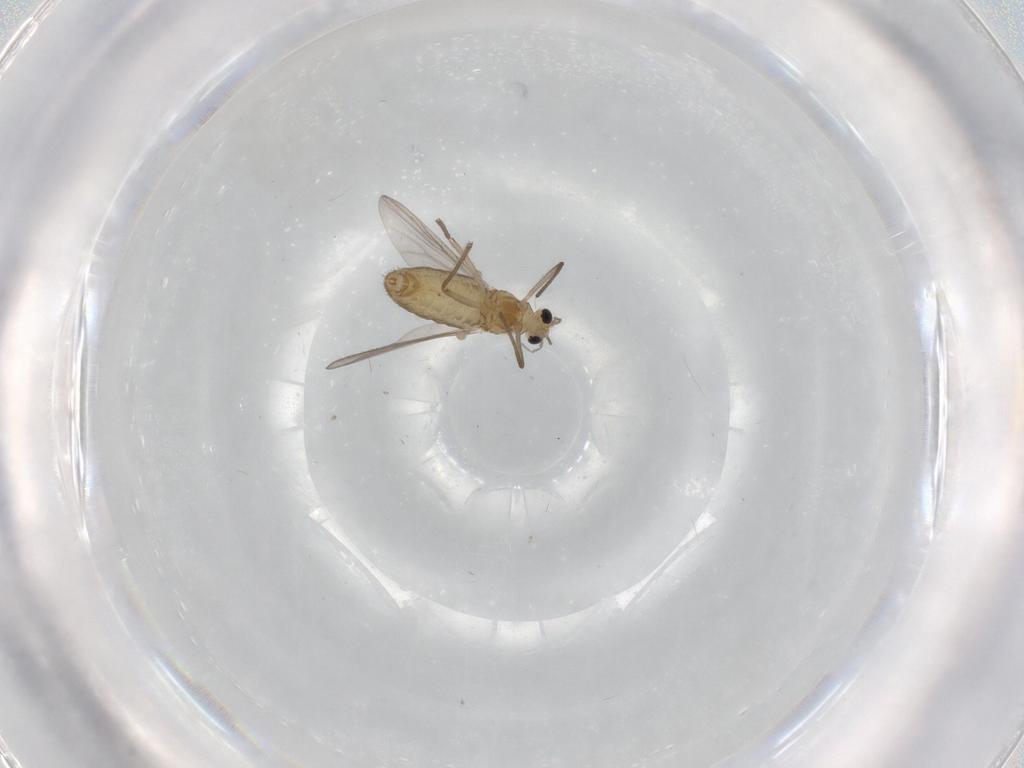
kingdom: Animalia
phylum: Arthropoda
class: Insecta
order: Diptera
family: Chironomidae
